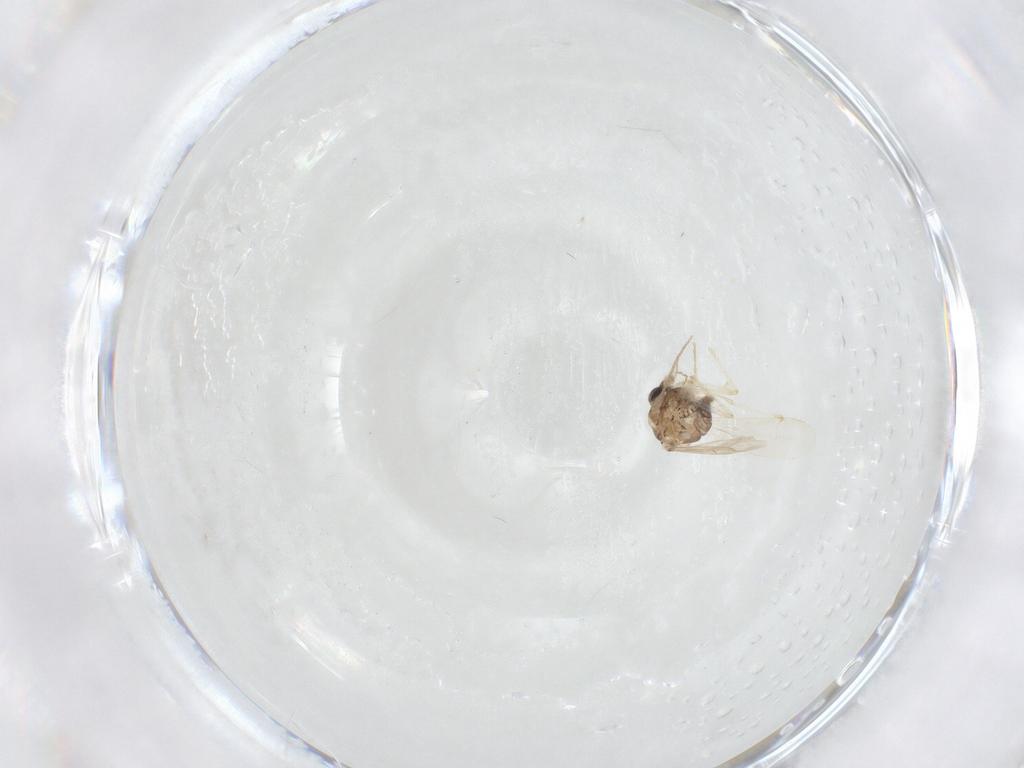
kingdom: Animalia
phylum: Arthropoda
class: Insecta
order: Diptera
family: Chironomidae
